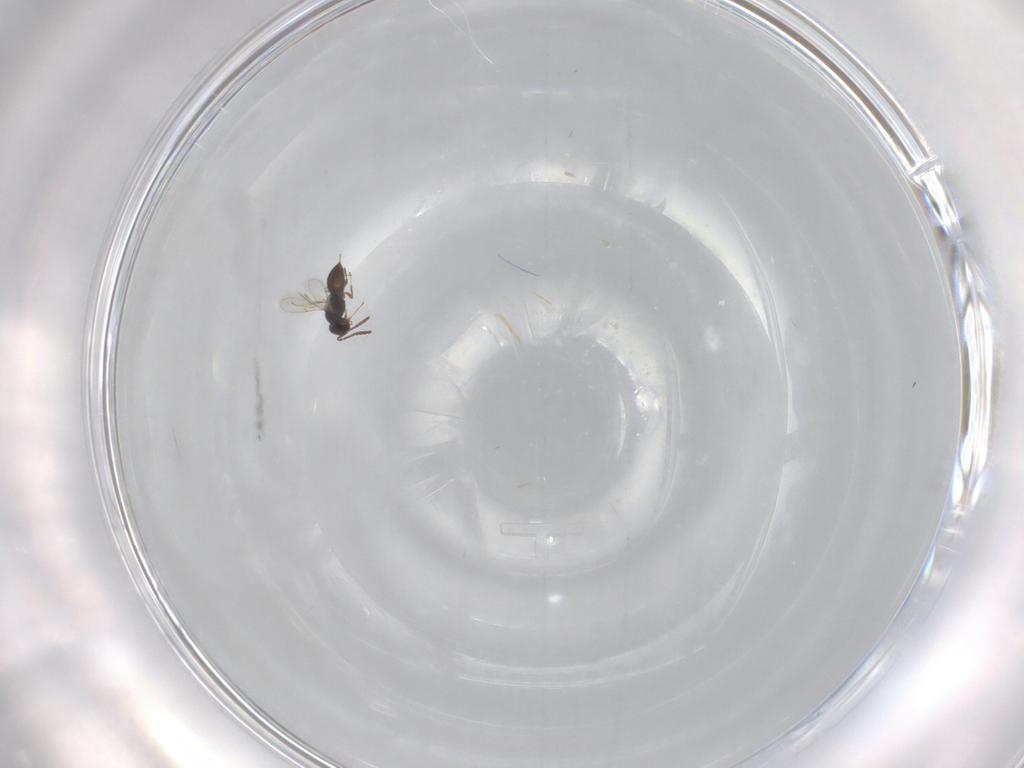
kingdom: Animalia
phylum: Arthropoda
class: Insecta
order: Hymenoptera
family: Scelionidae
